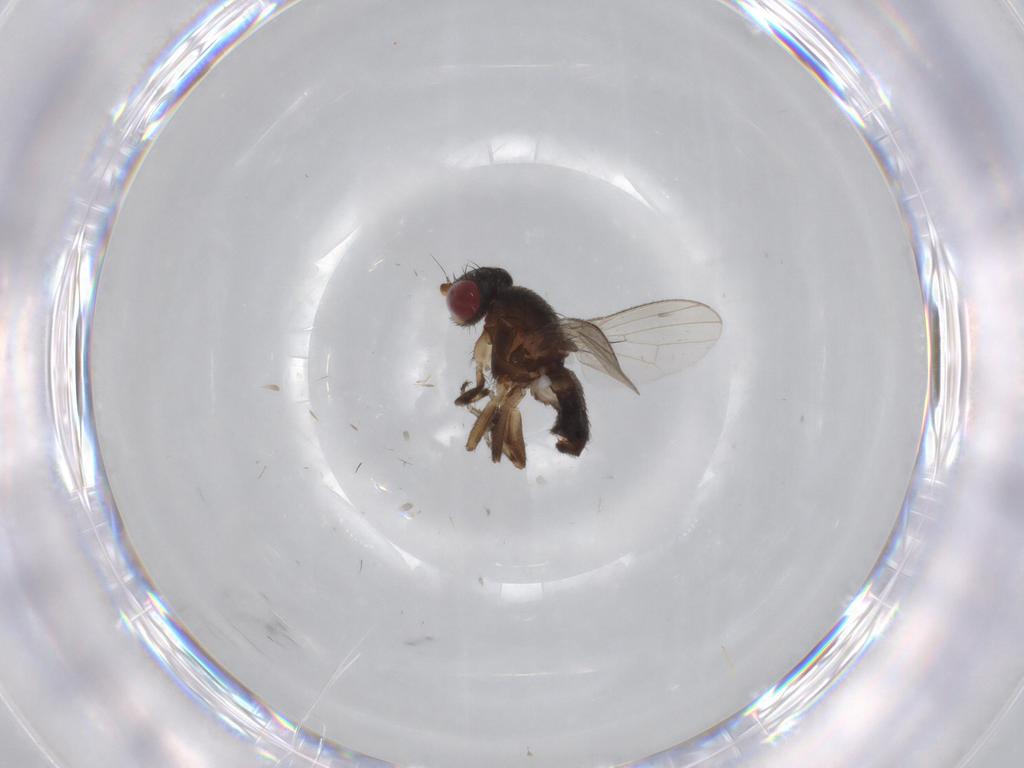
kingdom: Animalia
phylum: Arthropoda
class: Insecta
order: Diptera
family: Heleomyzidae
